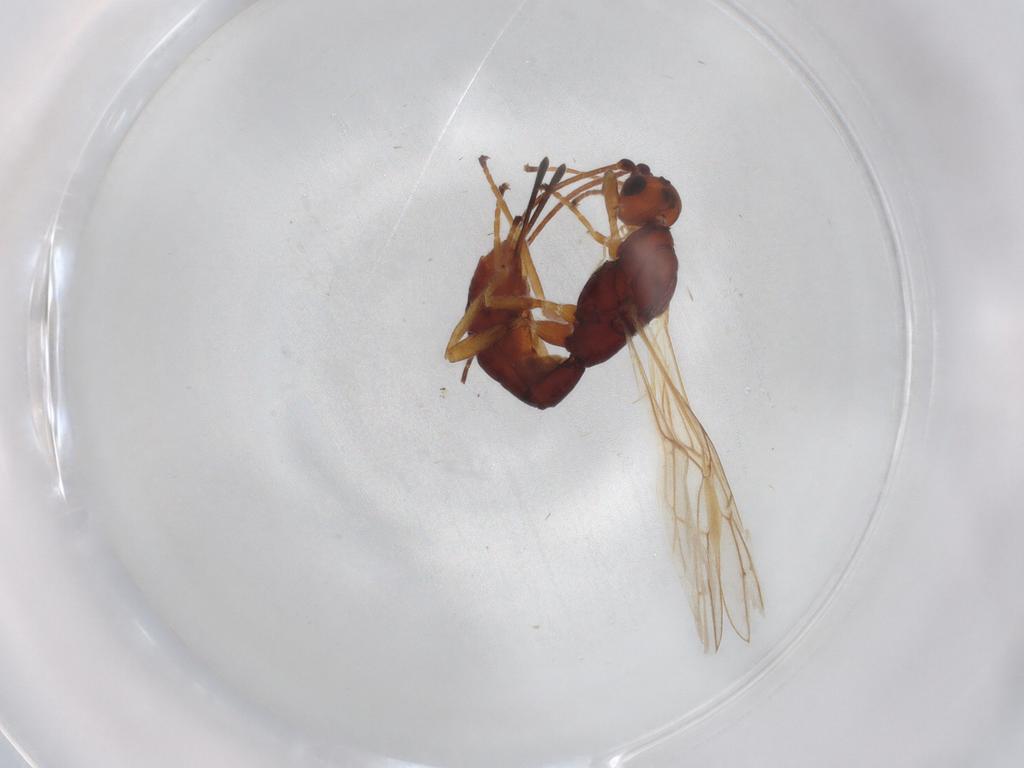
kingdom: Animalia
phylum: Arthropoda
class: Insecta
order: Hymenoptera
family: Braconidae
